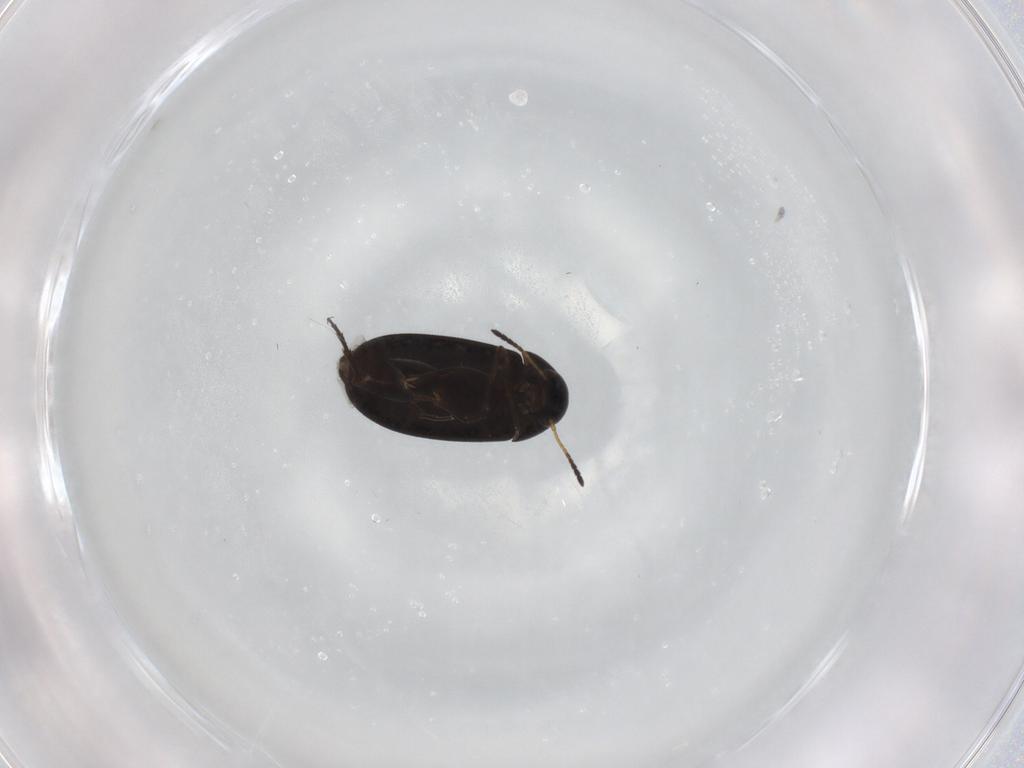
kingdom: Animalia
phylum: Arthropoda
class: Insecta
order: Coleoptera
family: Scraptiidae
